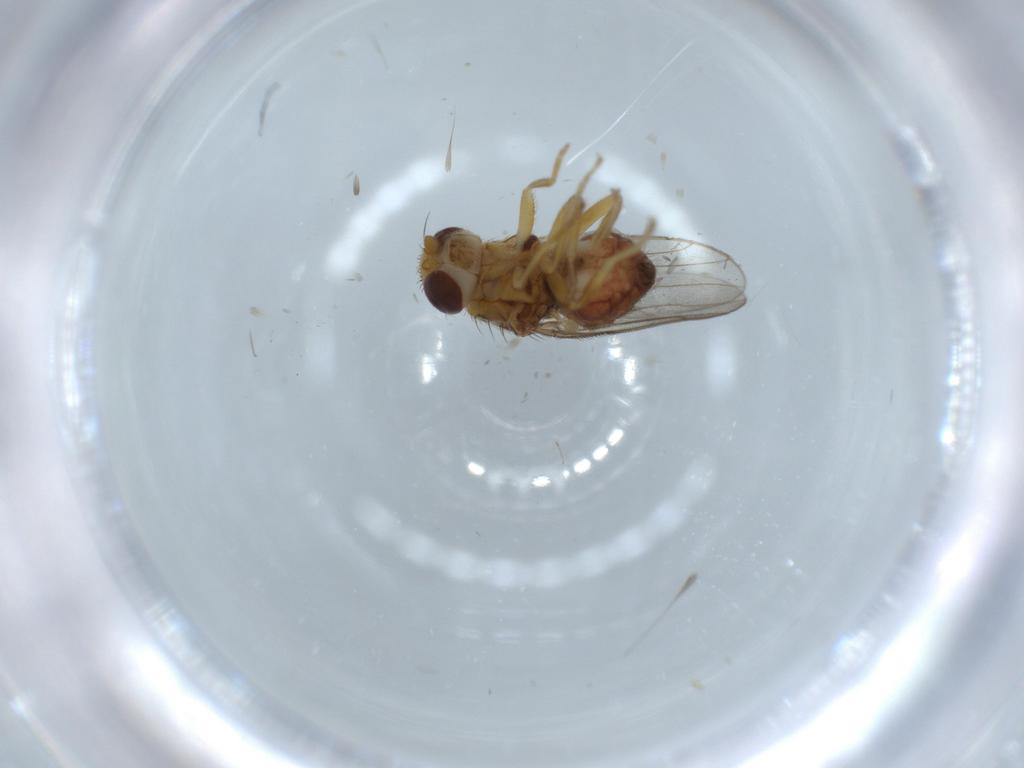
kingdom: Animalia
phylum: Arthropoda
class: Insecta
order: Diptera
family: Chloropidae
